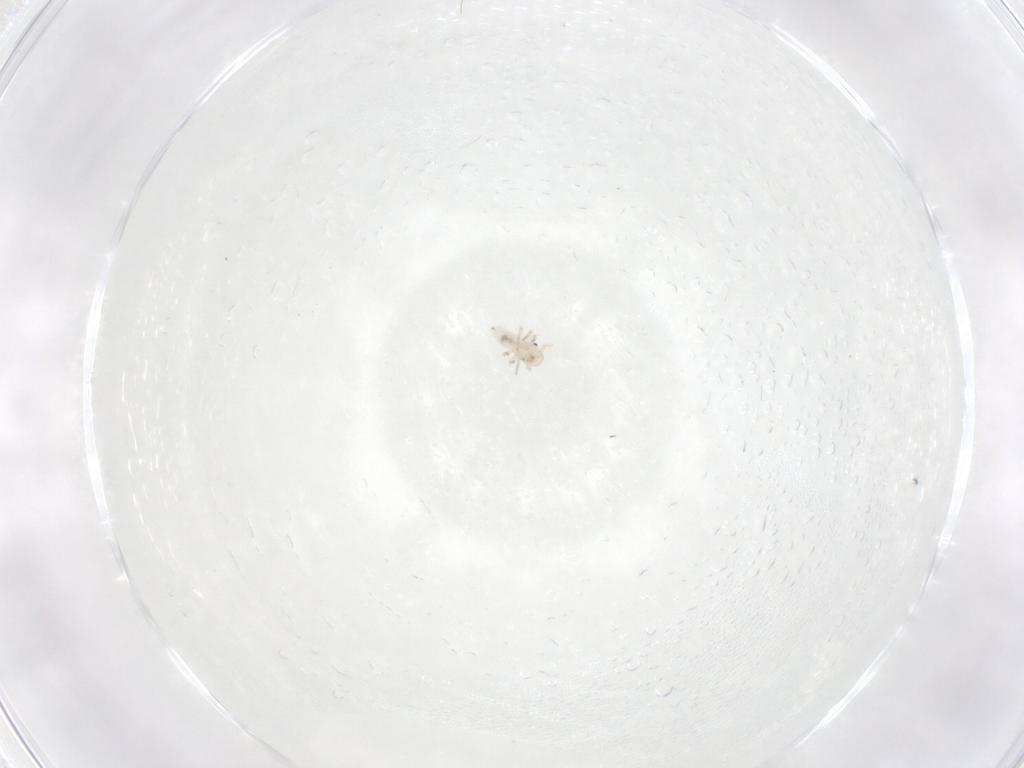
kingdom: Animalia
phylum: Arthropoda
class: Insecta
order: Psocodea
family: Caeciliusidae
